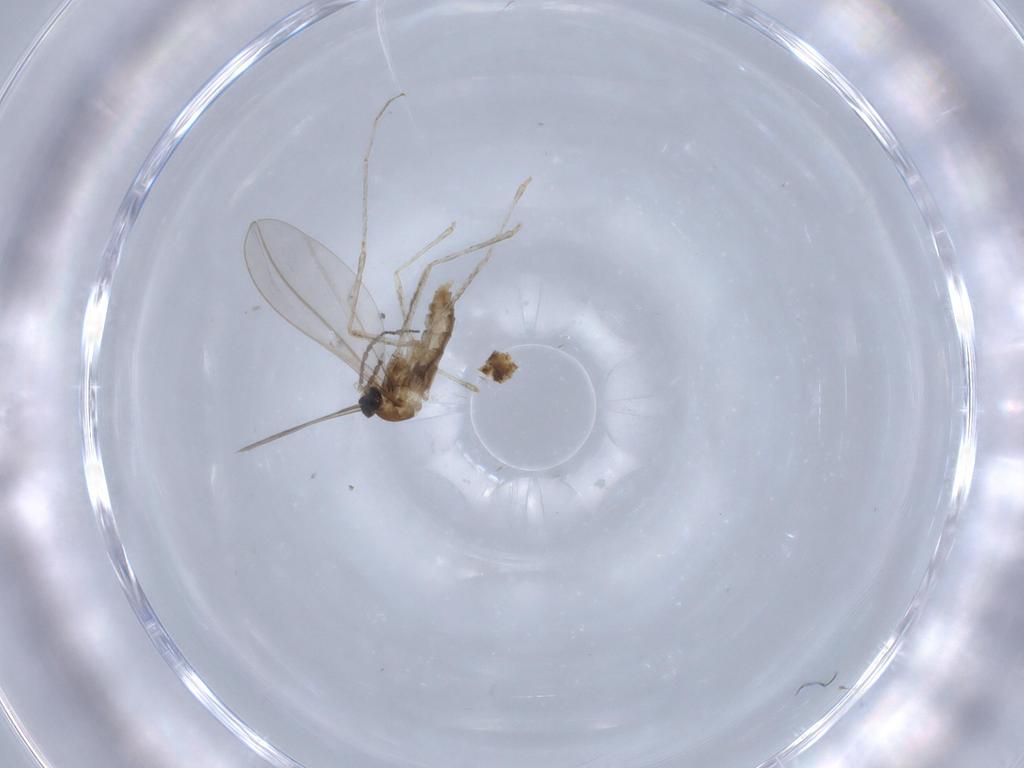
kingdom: Animalia
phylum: Arthropoda
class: Insecta
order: Diptera
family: Cecidomyiidae
